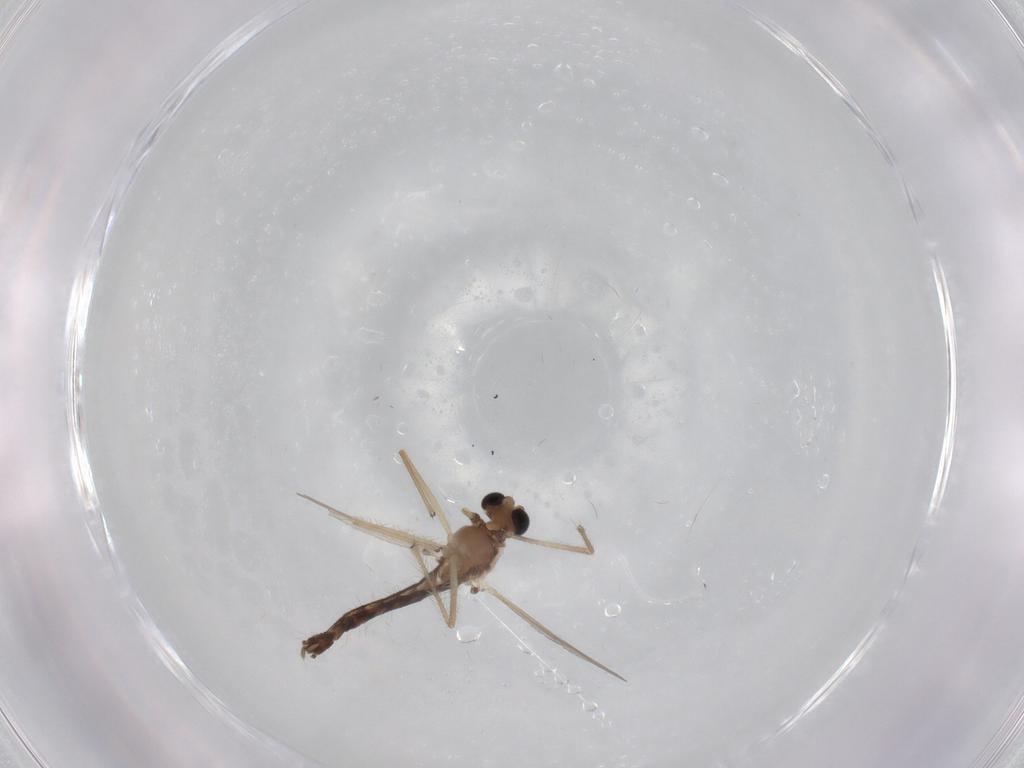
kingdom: Animalia
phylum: Arthropoda
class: Insecta
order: Diptera
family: Chironomidae
